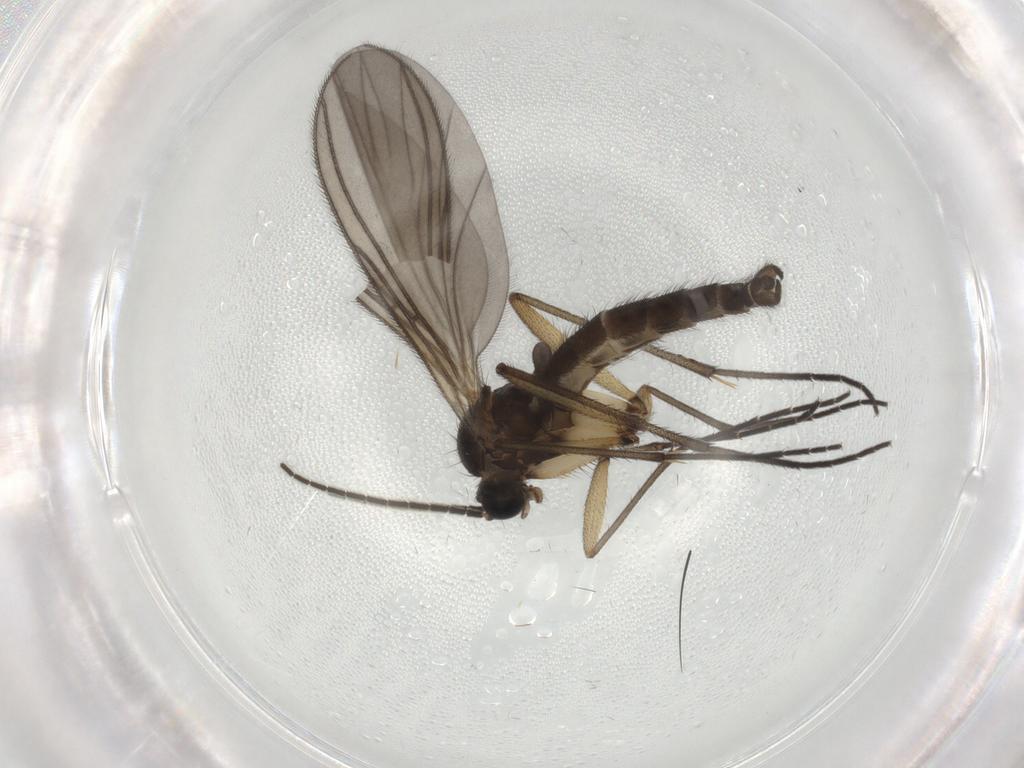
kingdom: Animalia
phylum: Arthropoda
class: Insecta
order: Diptera
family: Sciaridae
